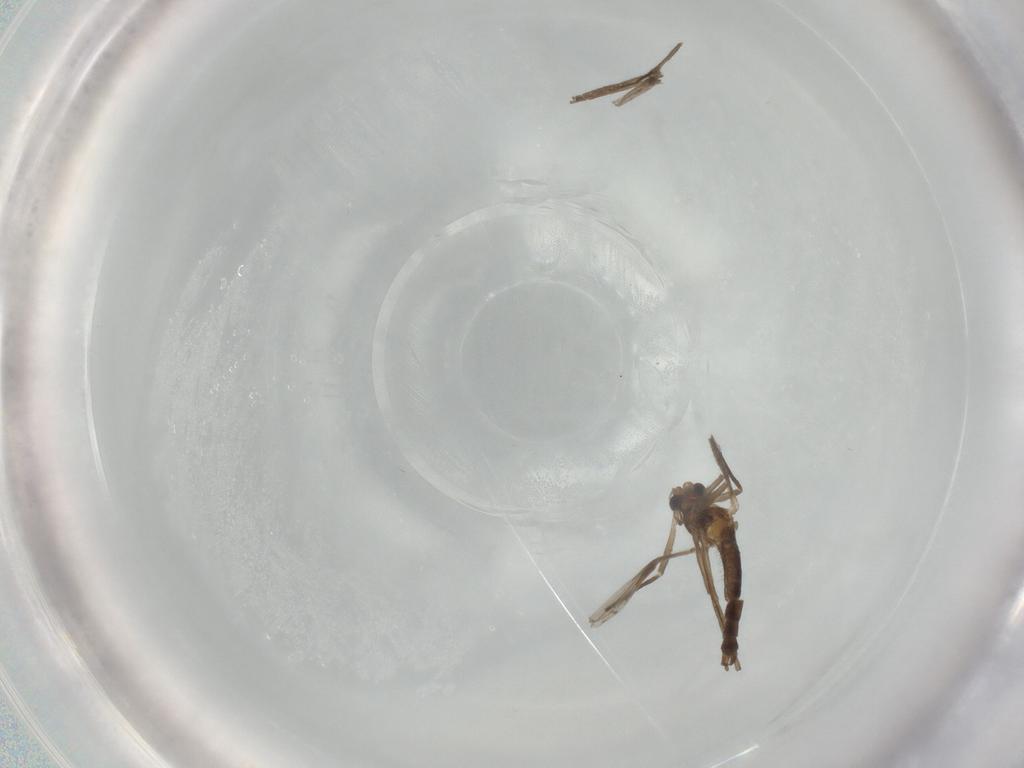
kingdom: Animalia
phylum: Arthropoda
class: Insecta
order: Diptera
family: Chironomidae
